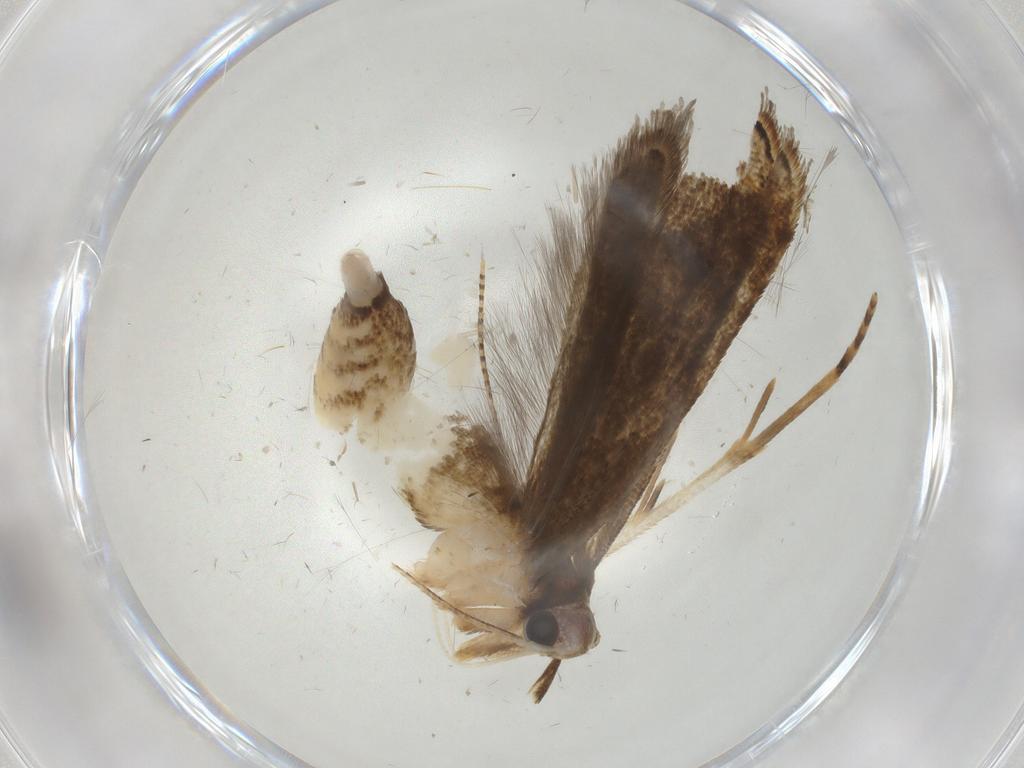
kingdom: Animalia
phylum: Arthropoda
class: Insecta
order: Lepidoptera
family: Gelechiidae
